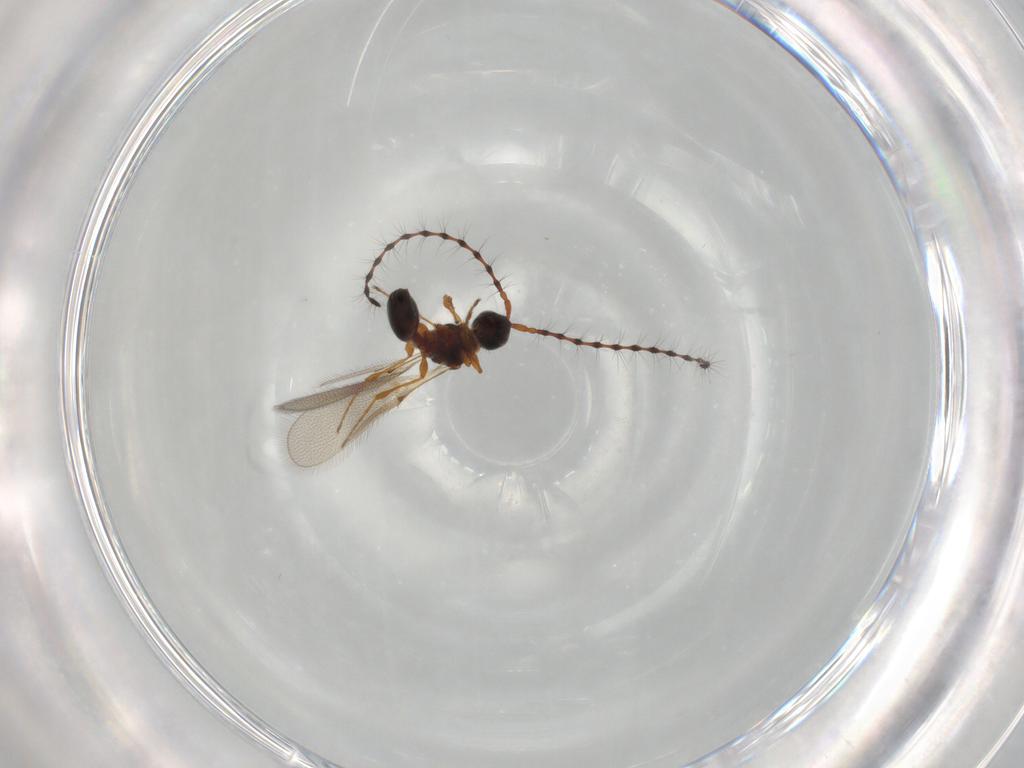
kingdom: Animalia
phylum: Arthropoda
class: Insecta
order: Hymenoptera
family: Diapriidae
